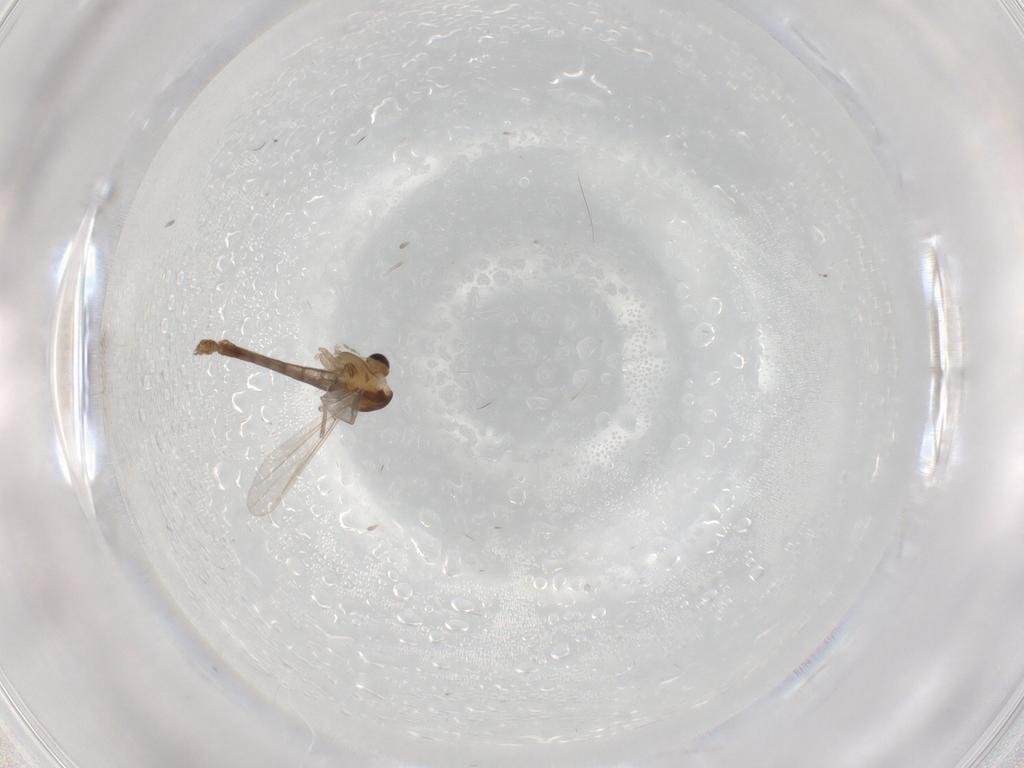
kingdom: Animalia
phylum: Arthropoda
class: Insecta
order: Diptera
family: Chironomidae
